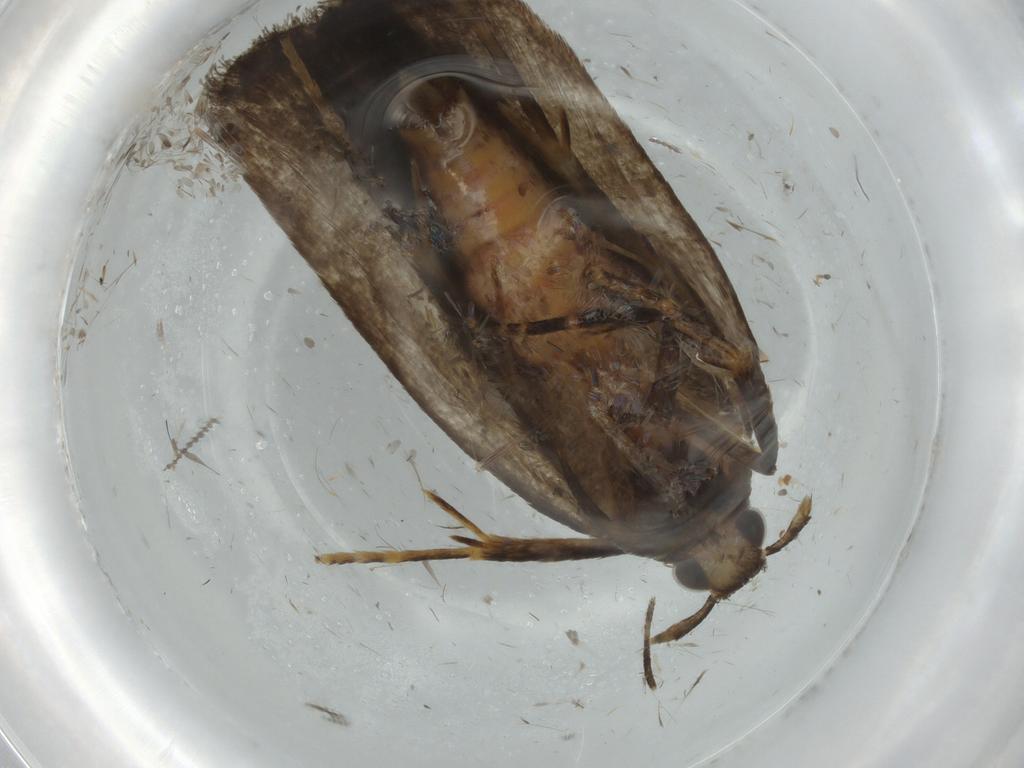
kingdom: Animalia
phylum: Arthropoda
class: Insecta
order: Lepidoptera
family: Autostichidae
